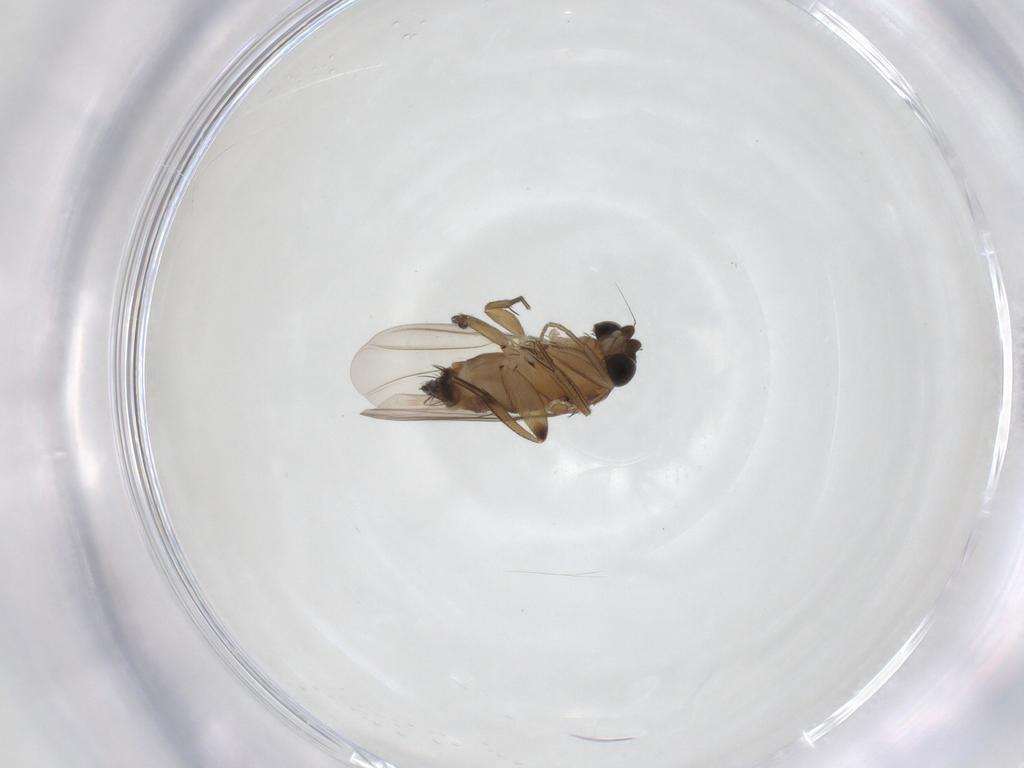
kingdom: Animalia
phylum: Arthropoda
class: Insecta
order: Diptera
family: Phoridae
